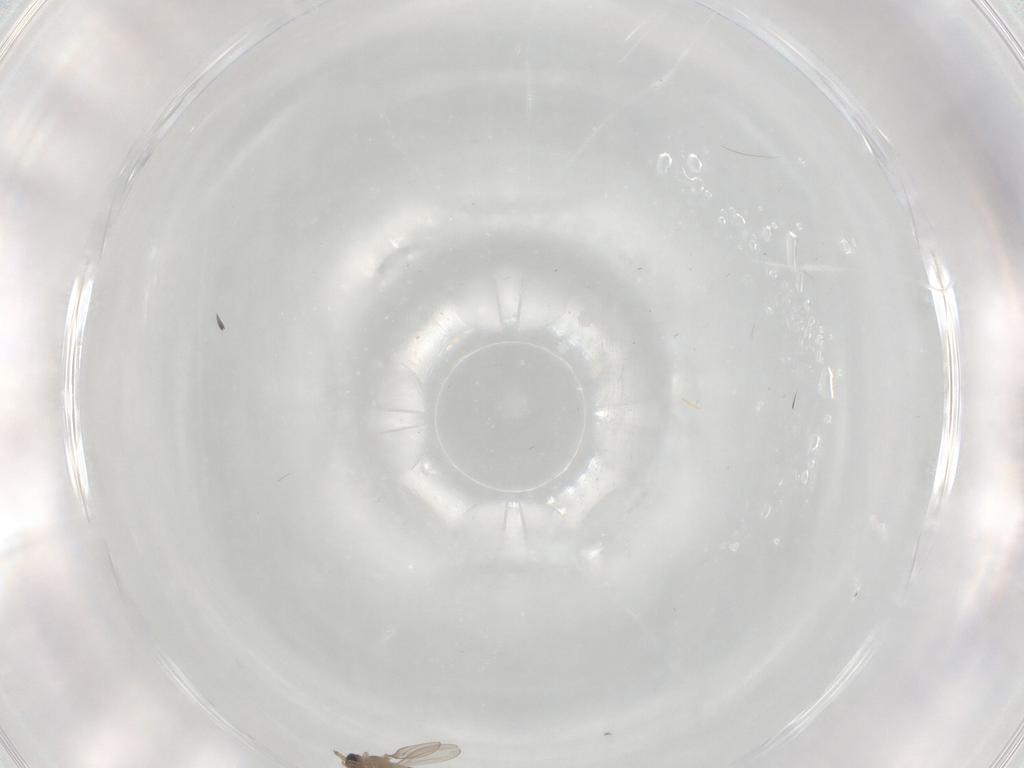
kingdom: Animalia
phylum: Arthropoda
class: Insecta
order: Diptera
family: Cecidomyiidae
